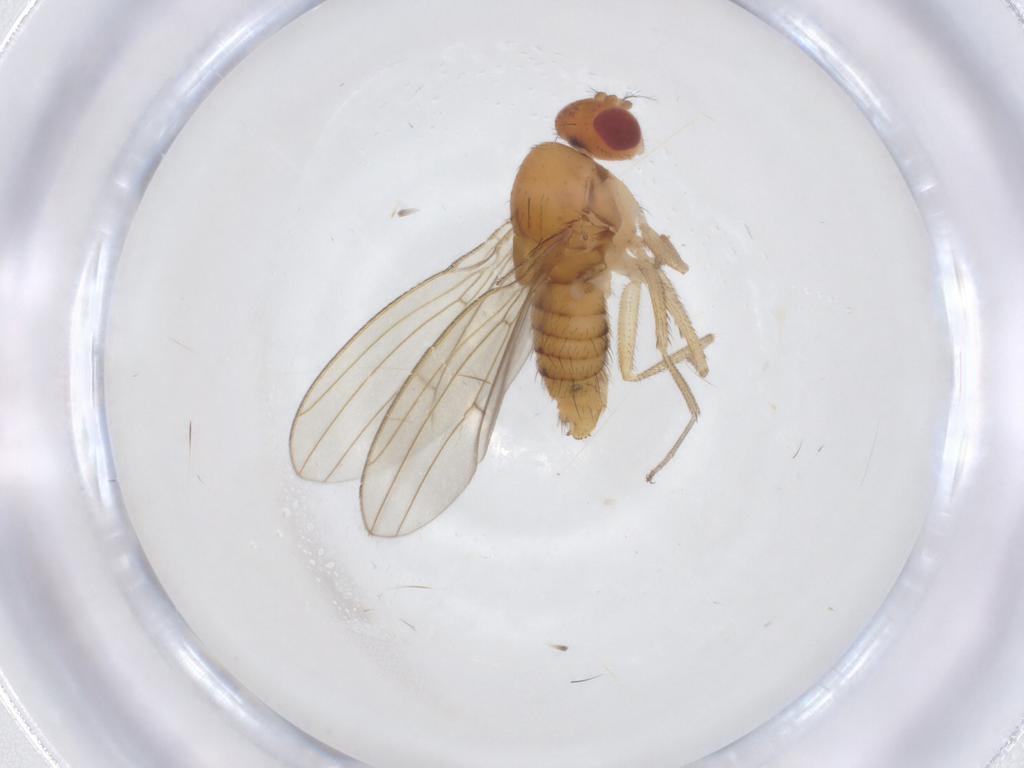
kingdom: Animalia
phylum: Arthropoda
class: Insecta
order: Diptera
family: Drosophilidae
